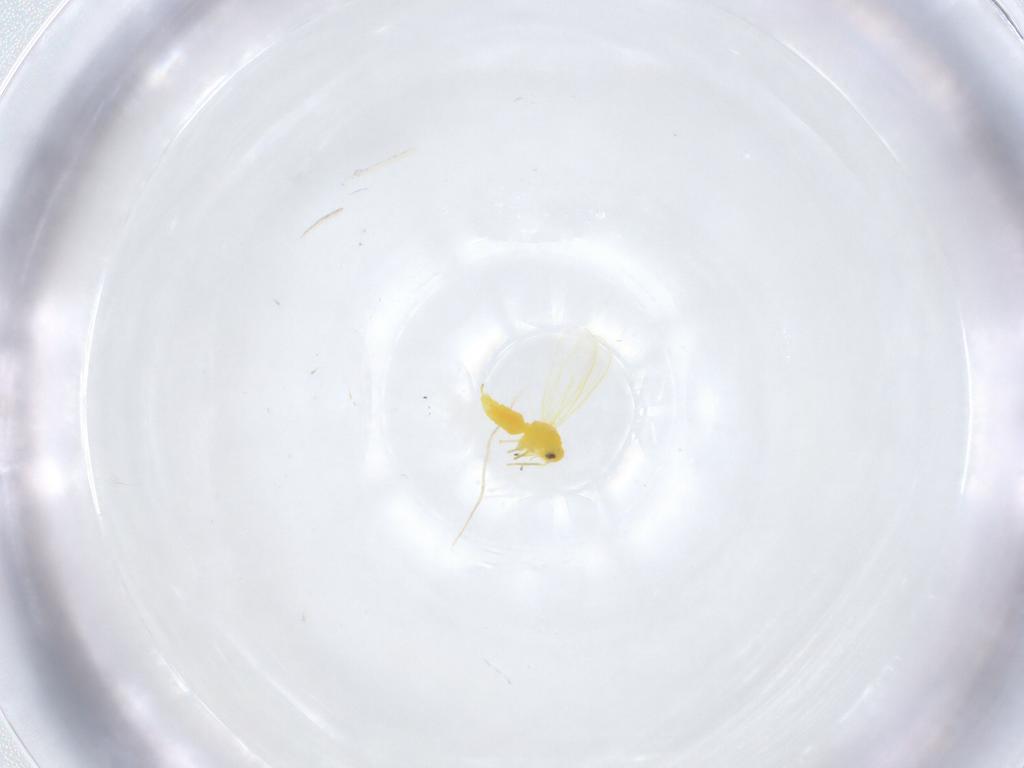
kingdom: Animalia
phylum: Arthropoda
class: Insecta
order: Hemiptera
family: Aleyrodidae
